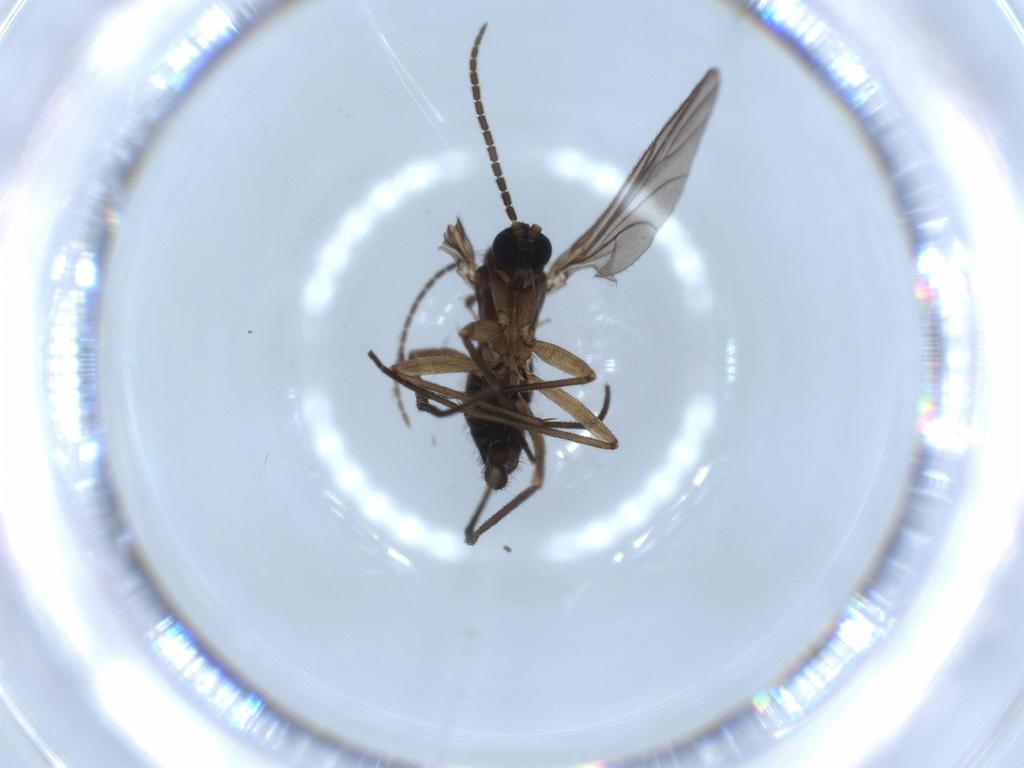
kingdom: Animalia
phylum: Arthropoda
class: Insecta
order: Diptera
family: Sciaridae
